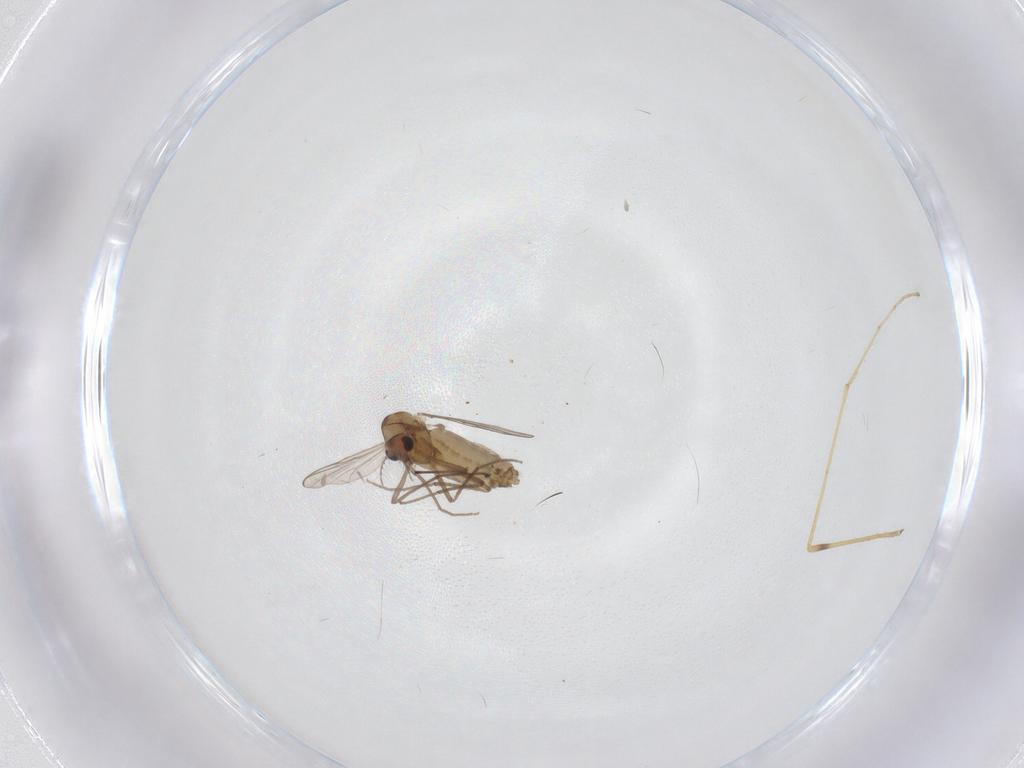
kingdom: Animalia
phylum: Arthropoda
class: Insecta
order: Diptera
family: Limoniidae
